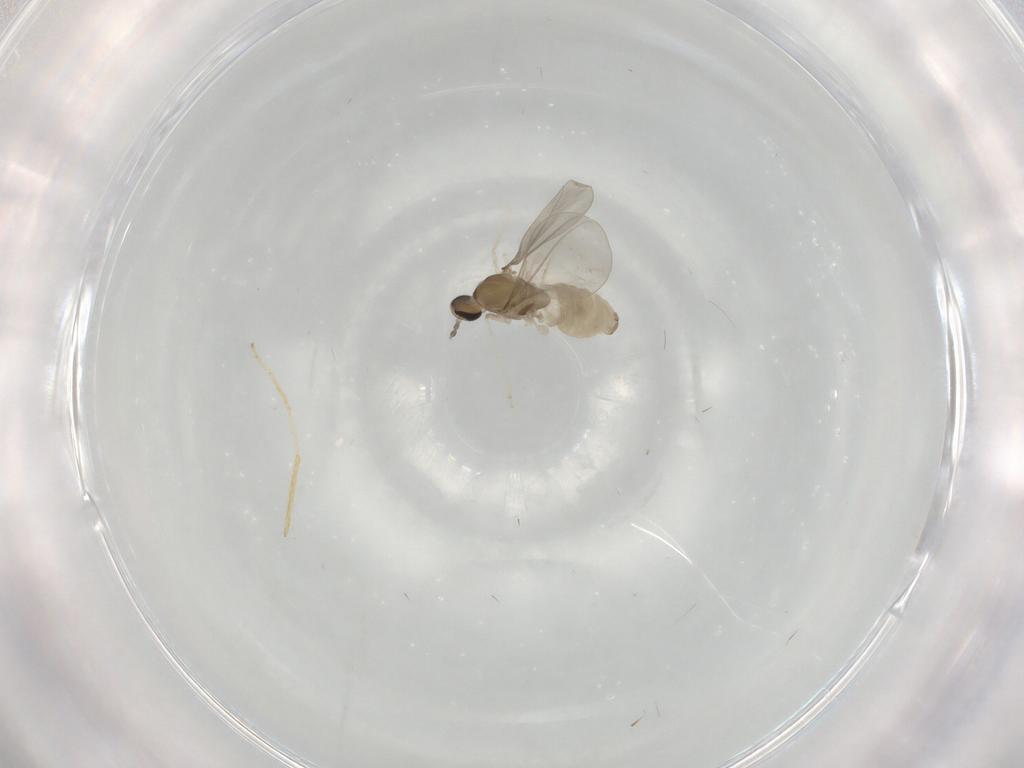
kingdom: Animalia
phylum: Arthropoda
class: Insecta
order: Diptera
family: Cecidomyiidae
